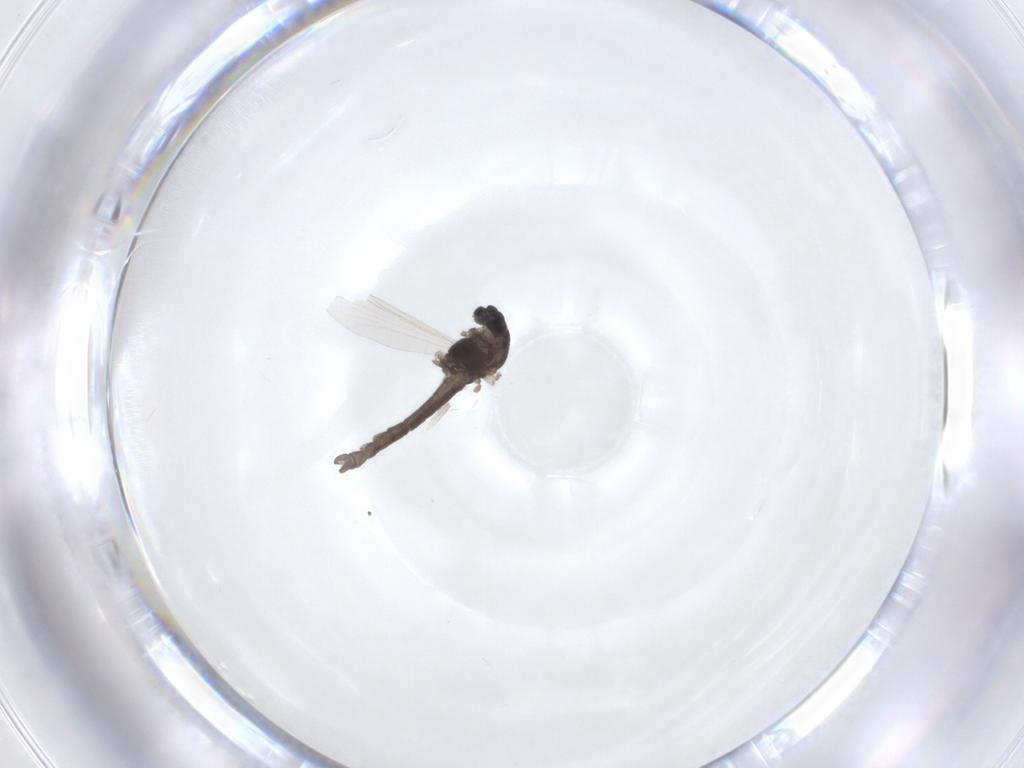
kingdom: Animalia
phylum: Arthropoda
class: Insecta
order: Diptera
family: Chironomidae
